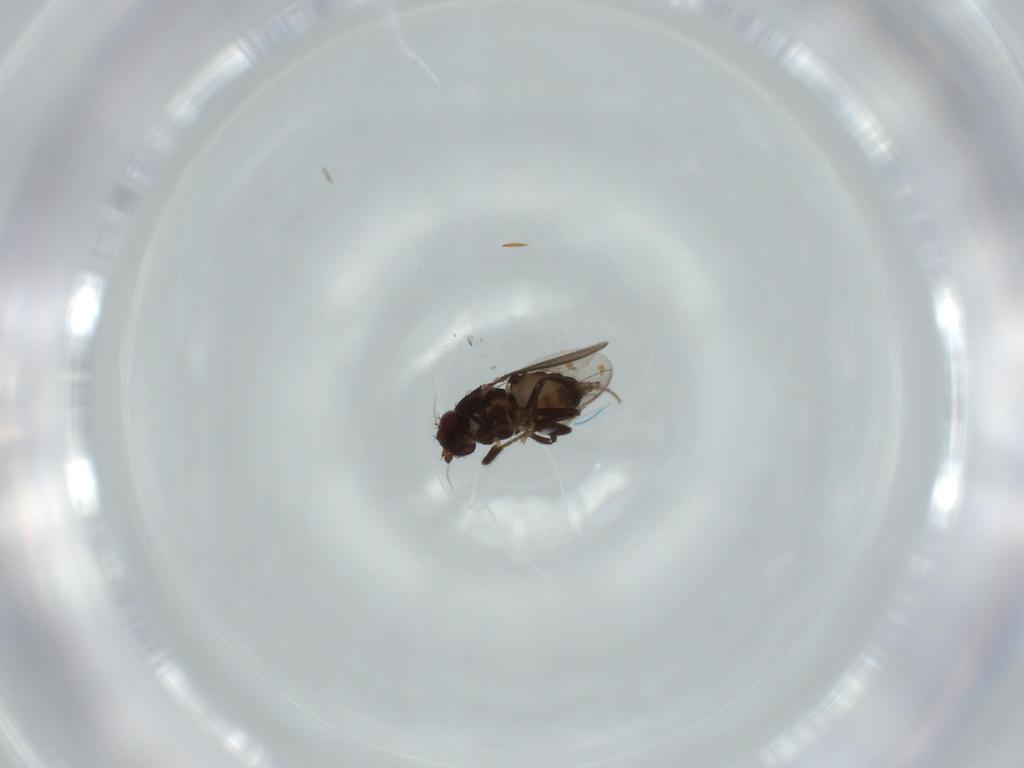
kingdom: Animalia
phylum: Arthropoda
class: Insecta
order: Diptera
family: Sphaeroceridae
